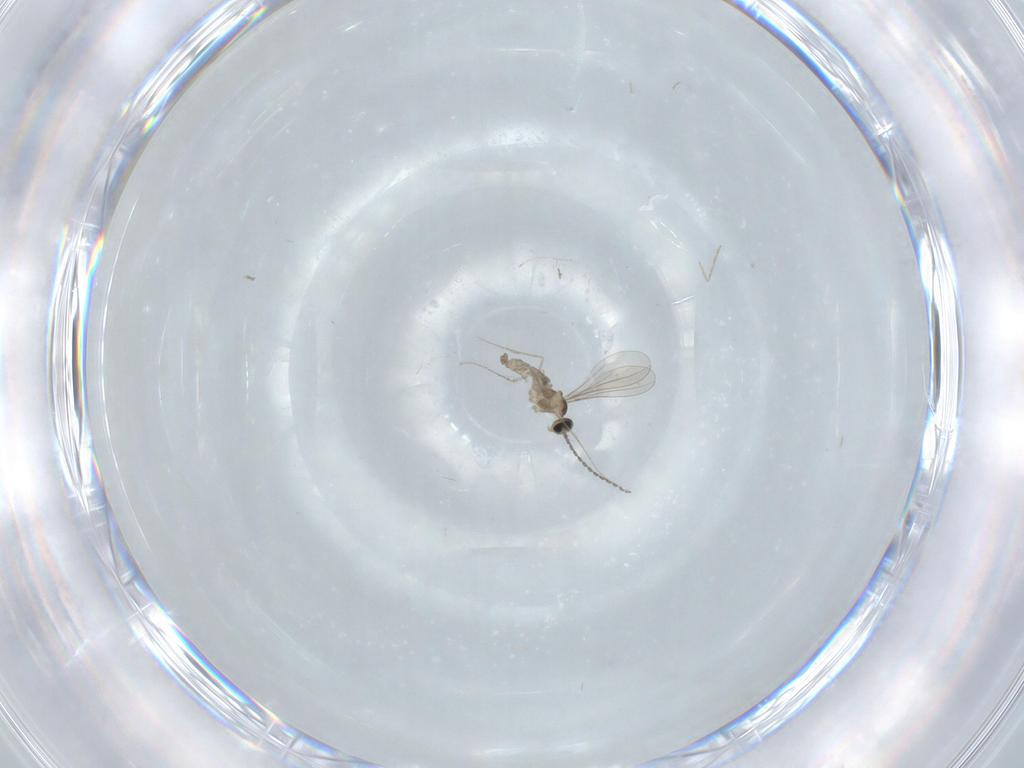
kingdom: Animalia
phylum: Arthropoda
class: Insecta
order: Diptera
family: Cecidomyiidae
